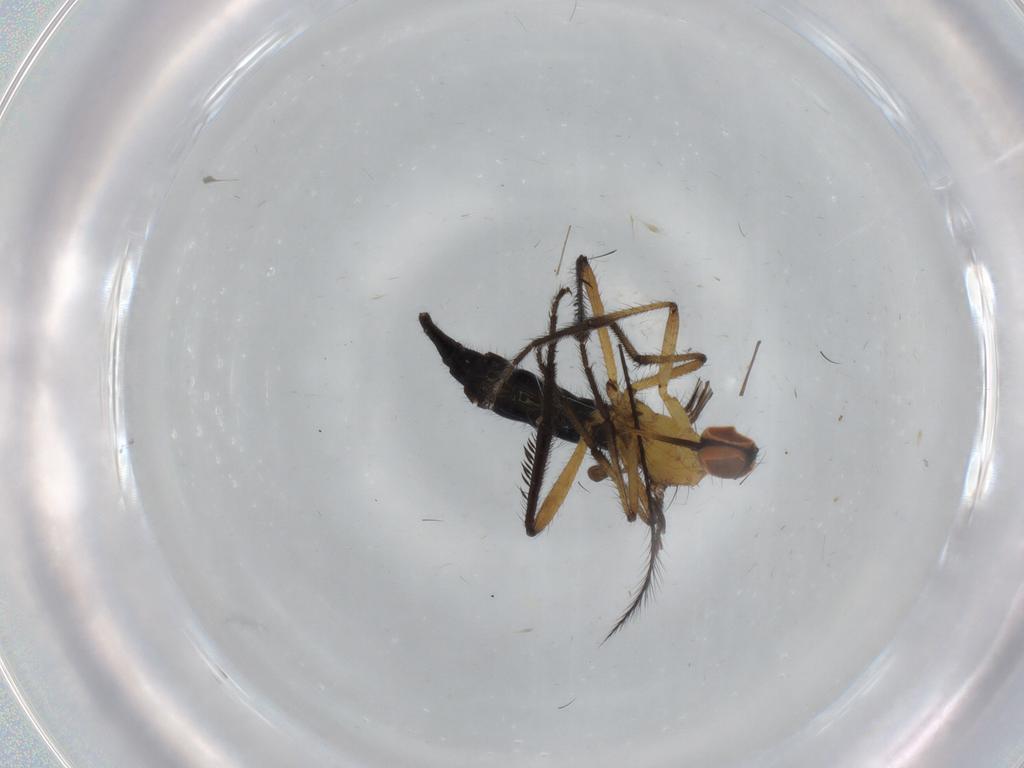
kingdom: Animalia
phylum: Arthropoda
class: Insecta
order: Diptera
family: Empididae
